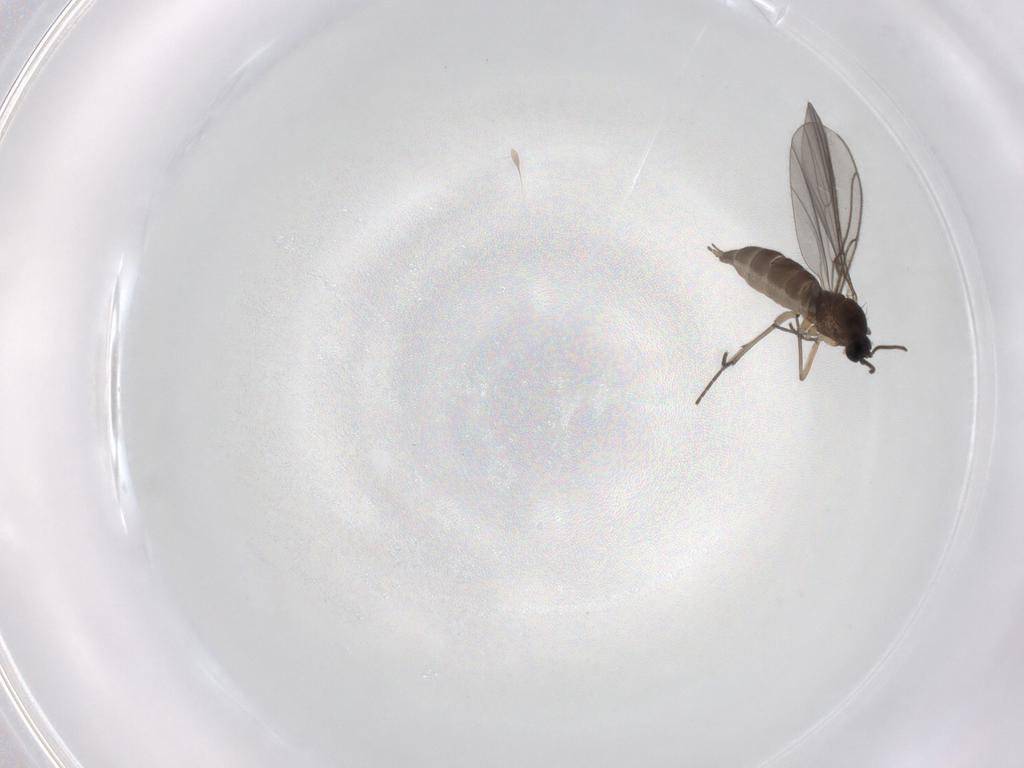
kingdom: Animalia
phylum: Arthropoda
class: Insecta
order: Diptera
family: Sciaridae
